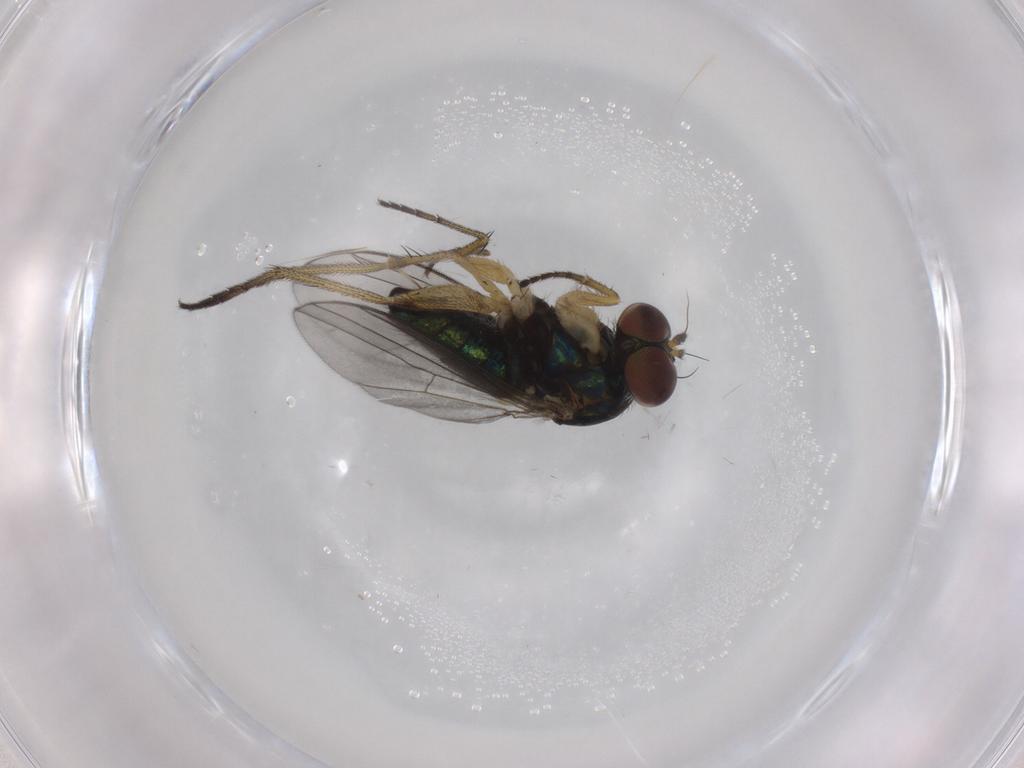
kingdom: Animalia
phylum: Arthropoda
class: Insecta
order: Diptera
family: Dolichopodidae
